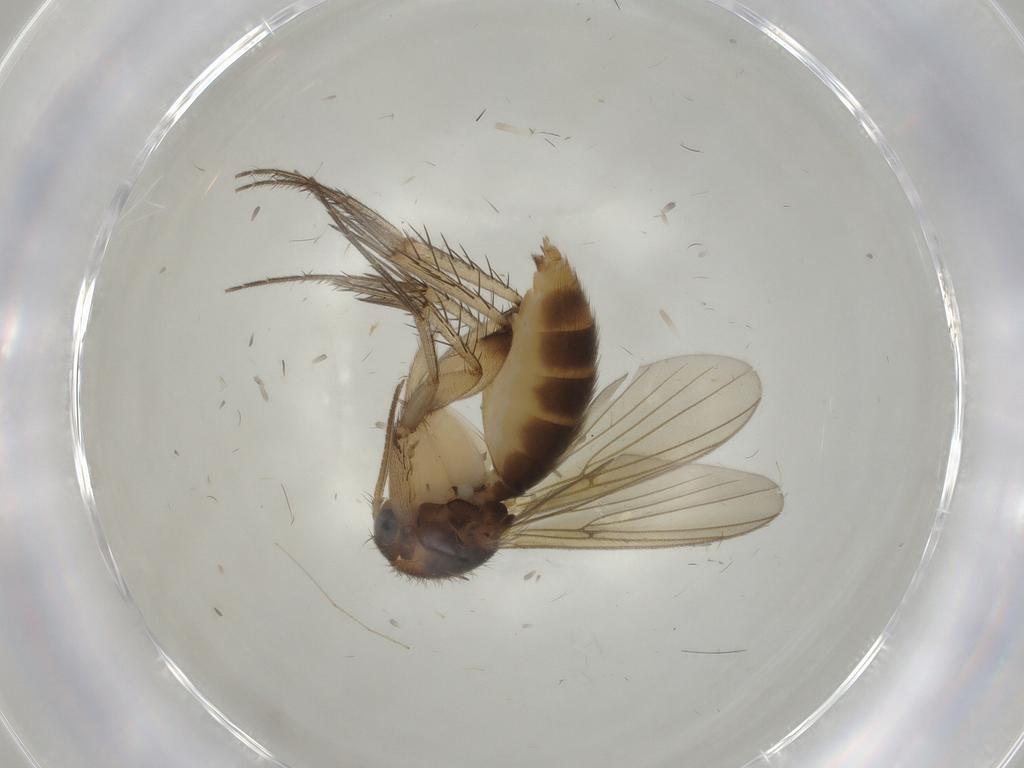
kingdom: Animalia
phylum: Arthropoda
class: Insecta
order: Diptera
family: Mycetophilidae
